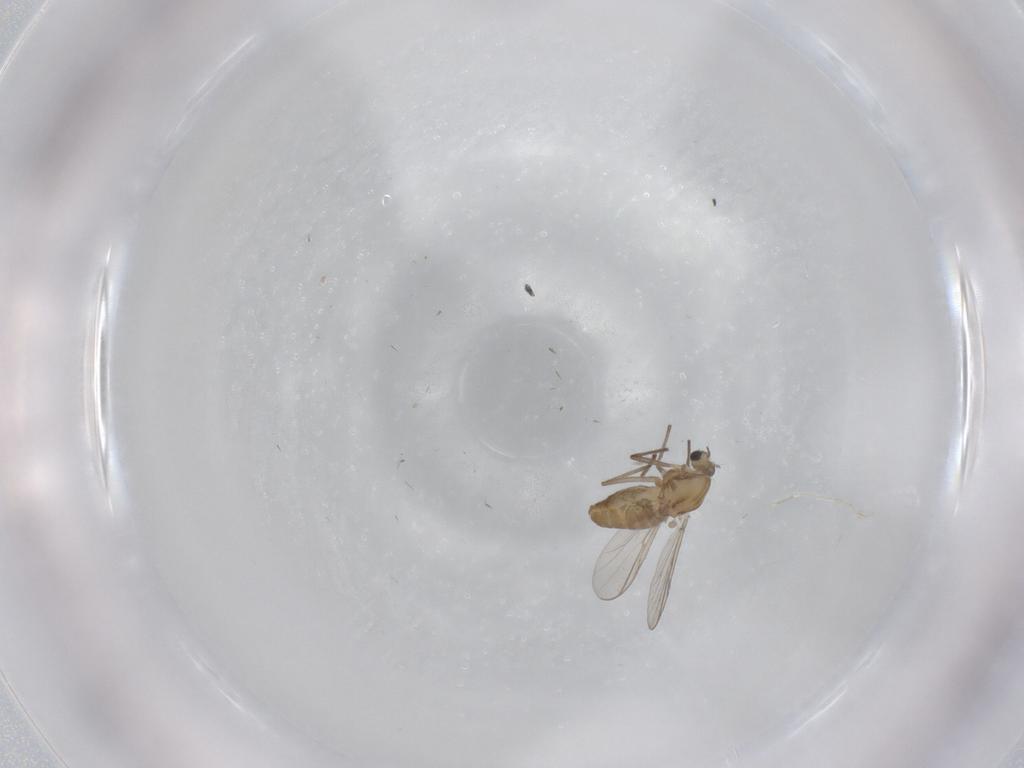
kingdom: Animalia
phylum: Arthropoda
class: Insecta
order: Diptera
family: Chironomidae
